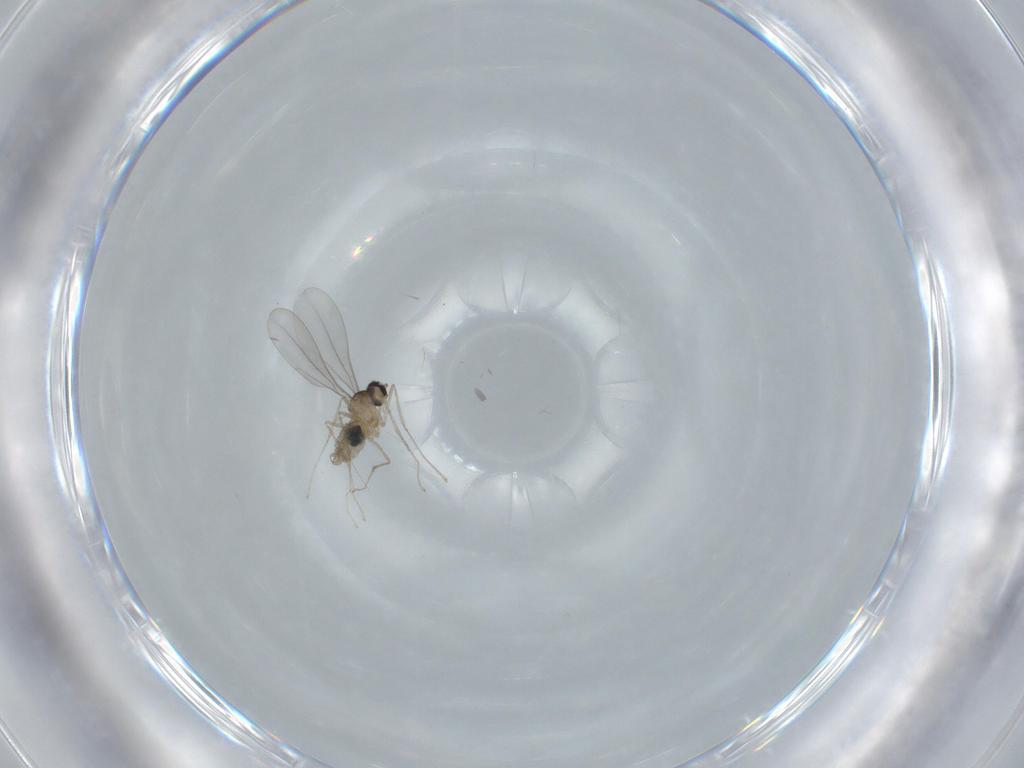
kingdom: Animalia
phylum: Arthropoda
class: Insecta
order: Diptera
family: Cecidomyiidae
